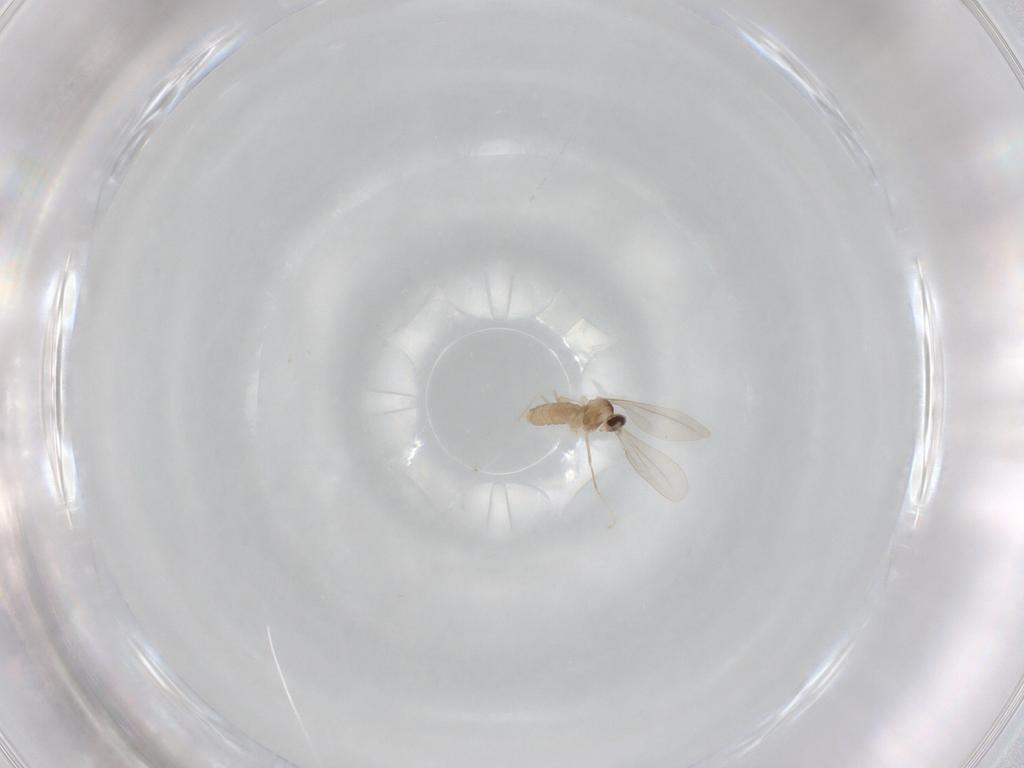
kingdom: Animalia
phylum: Arthropoda
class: Insecta
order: Diptera
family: Cecidomyiidae
